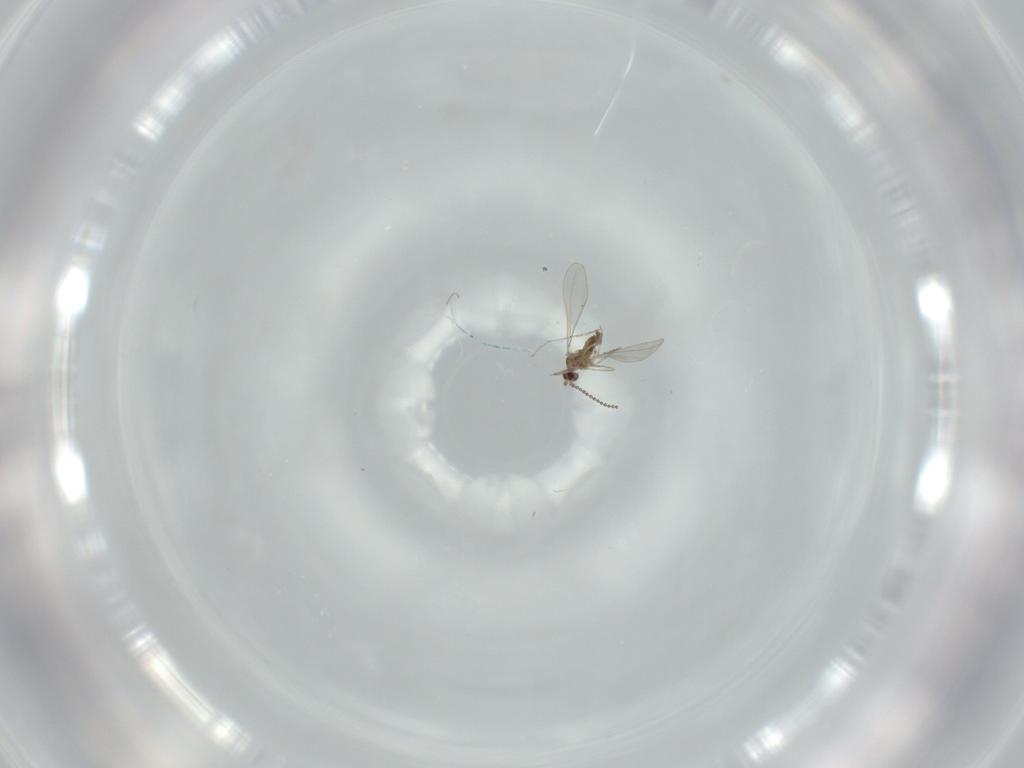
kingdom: Animalia
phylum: Arthropoda
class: Insecta
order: Diptera
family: Cecidomyiidae
